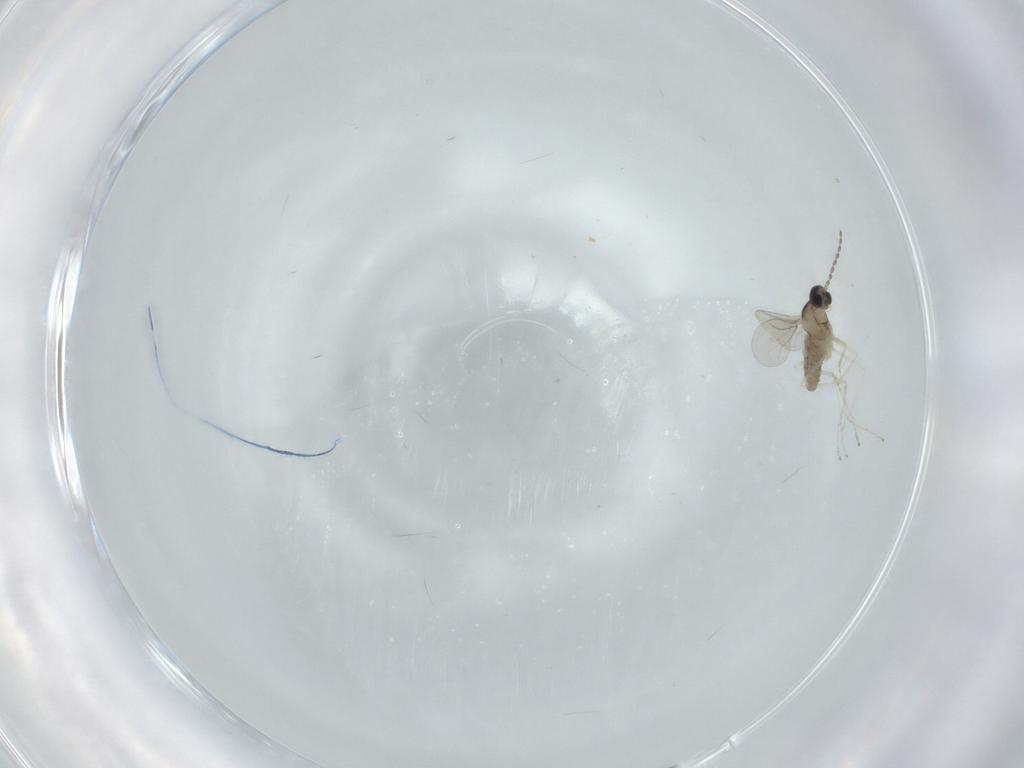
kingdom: Animalia
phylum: Arthropoda
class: Insecta
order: Diptera
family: Cecidomyiidae
